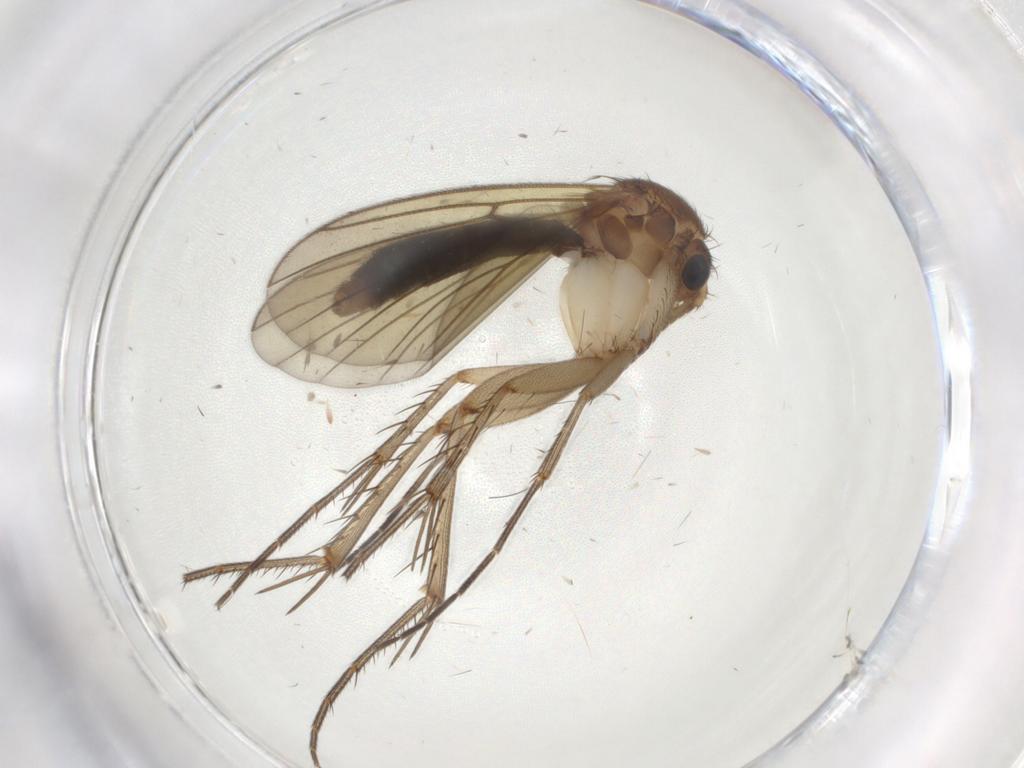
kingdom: Animalia
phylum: Arthropoda
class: Insecta
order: Diptera
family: Mycetophilidae
